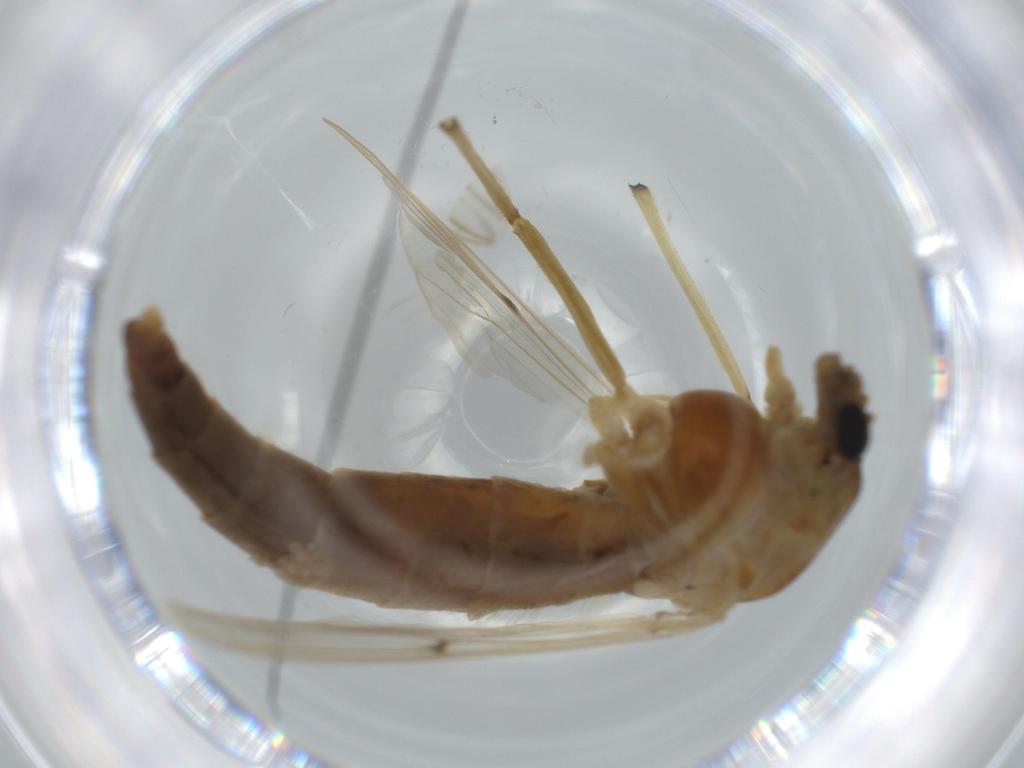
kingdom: Animalia
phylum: Arthropoda
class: Insecta
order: Diptera
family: Chironomidae
